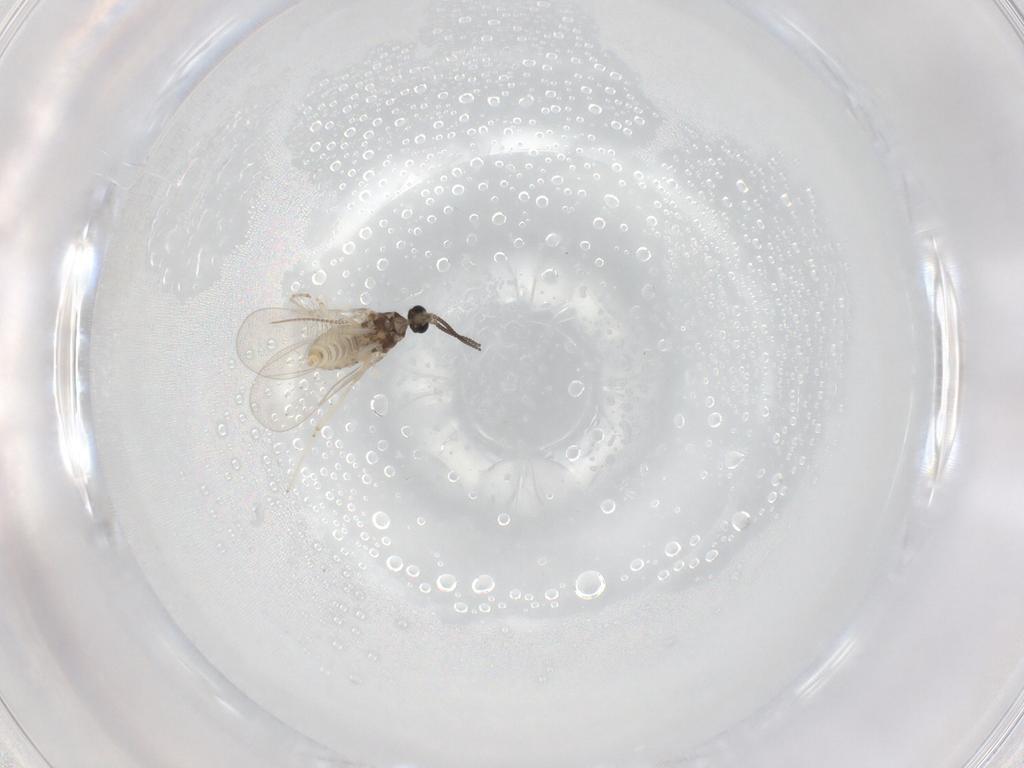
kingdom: Animalia
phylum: Arthropoda
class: Insecta
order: Diptera
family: Cecidomyiidae
